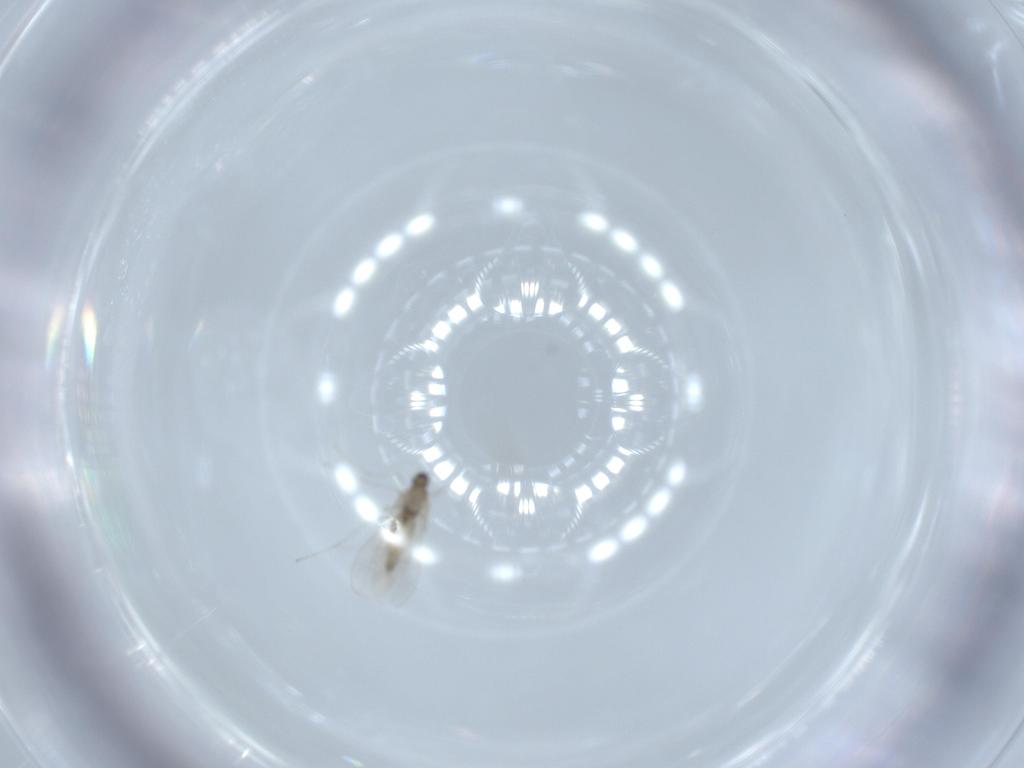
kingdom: Animalia
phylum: Arthropoda
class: Insecta
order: Diptera
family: Cecidomyiidae
